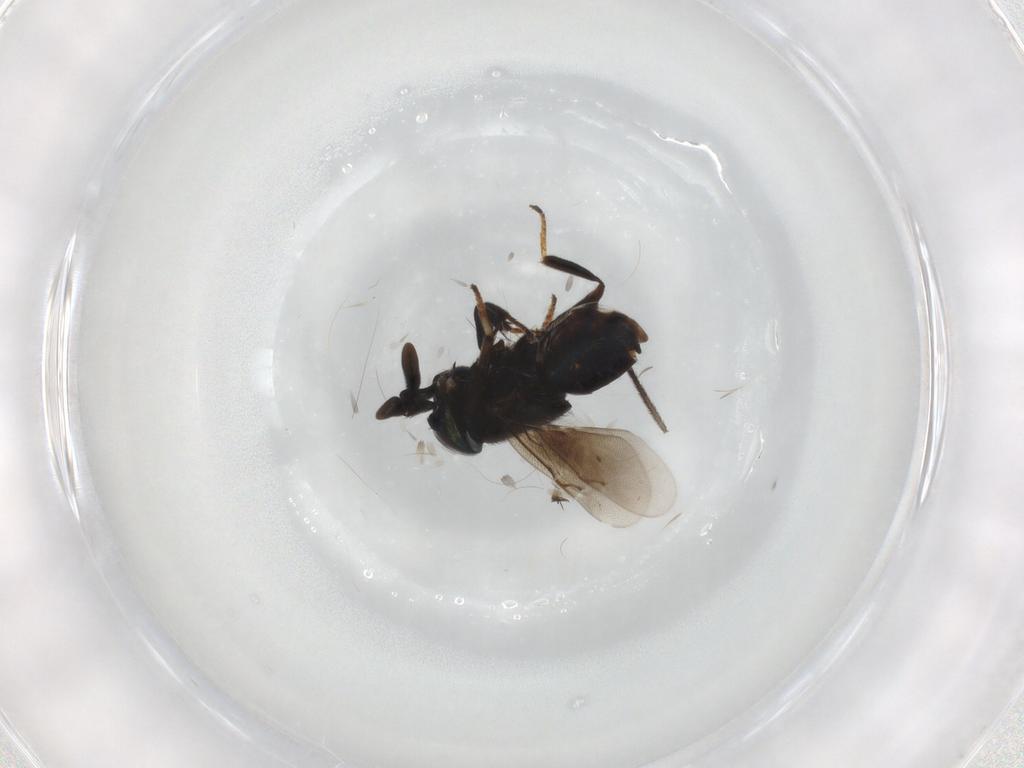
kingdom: Animalia
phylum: Arthropoda
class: Insecta
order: Hymenoptera
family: Encyrtidae
